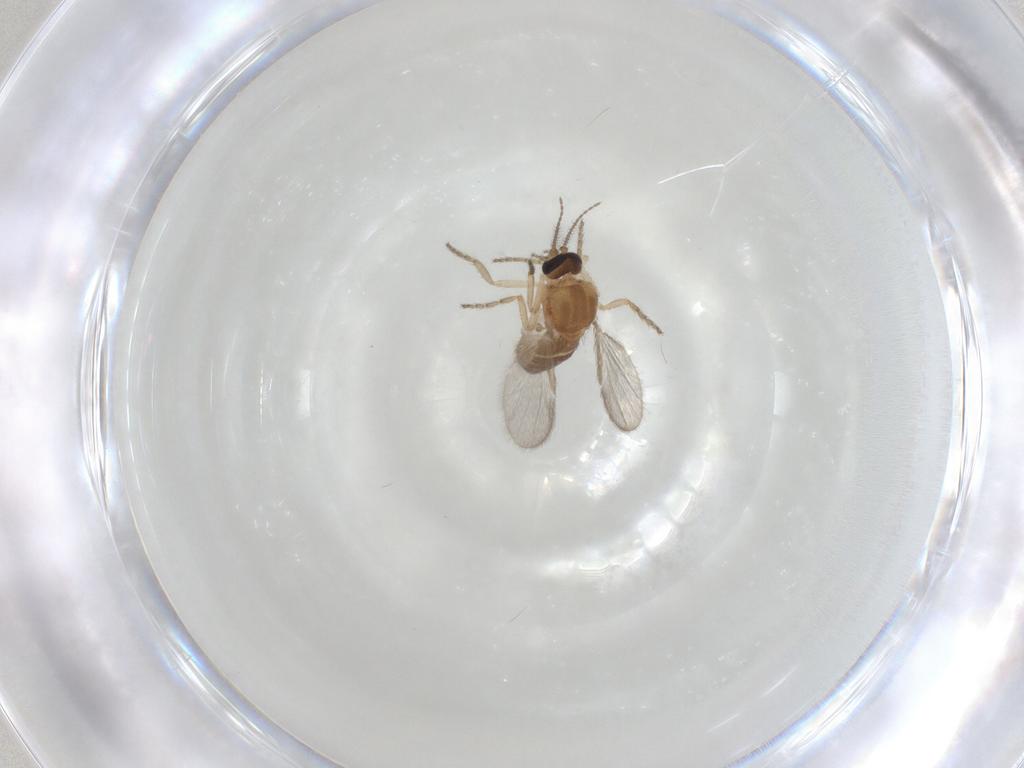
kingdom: Animalia
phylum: Arthropoda
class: Insecta
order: Diptera
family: Ceratopogonidae
